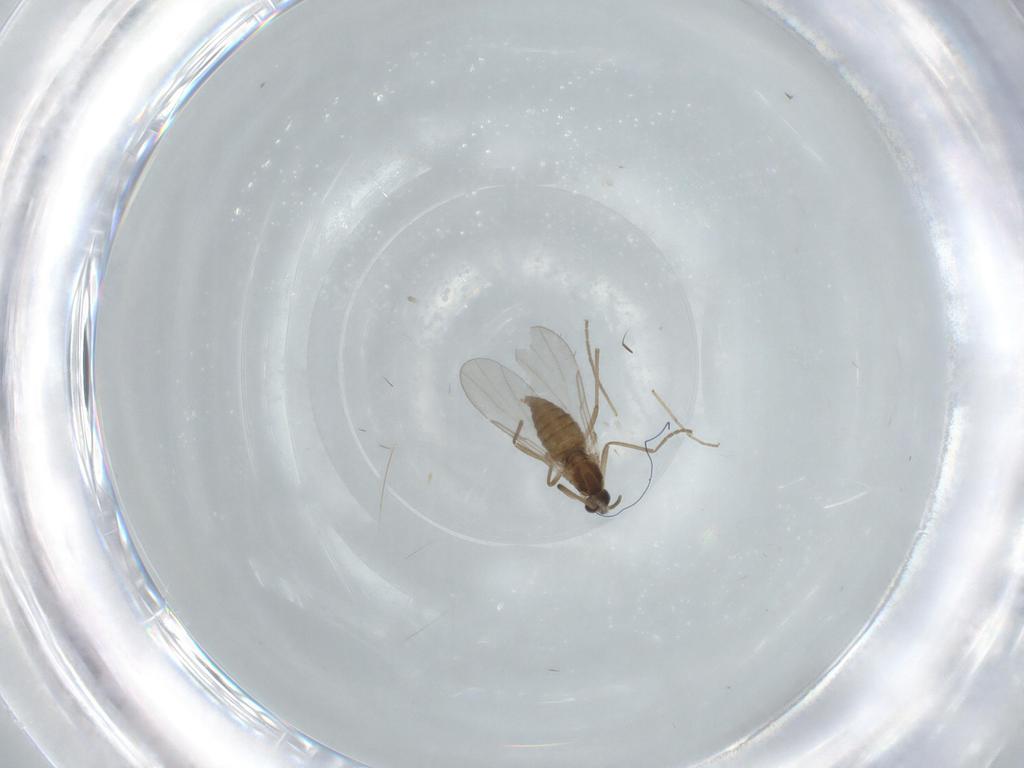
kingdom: Animalia
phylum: Arthropoda
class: Insecta
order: Diptera
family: Cecidomyiidae
